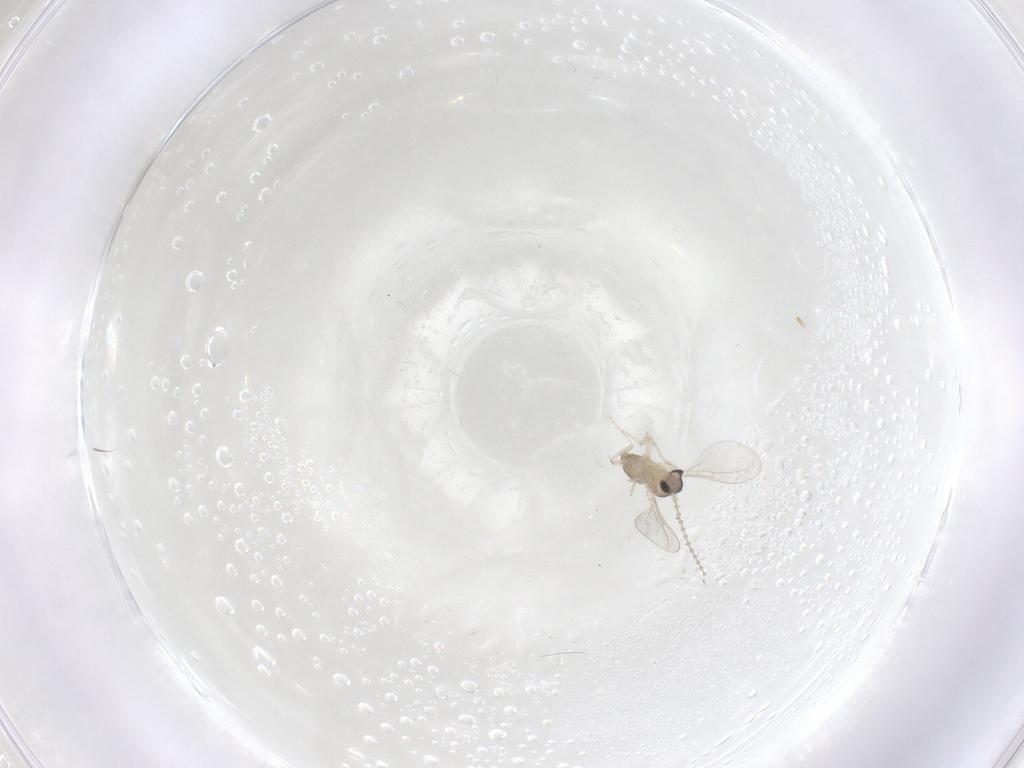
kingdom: Animalia
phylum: Arthropoda
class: Insecta
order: Diptera
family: Cecidomyiidae
